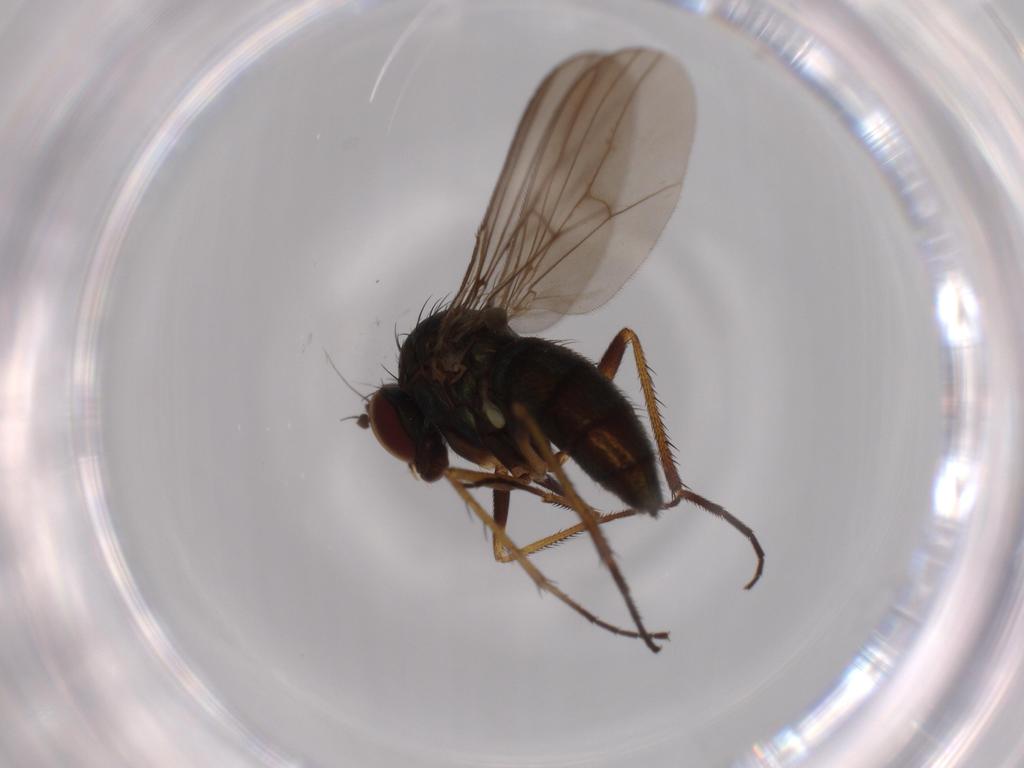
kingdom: Animalia
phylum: Arthropoda
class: Insecta
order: Diptera
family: Dolichopodidae
